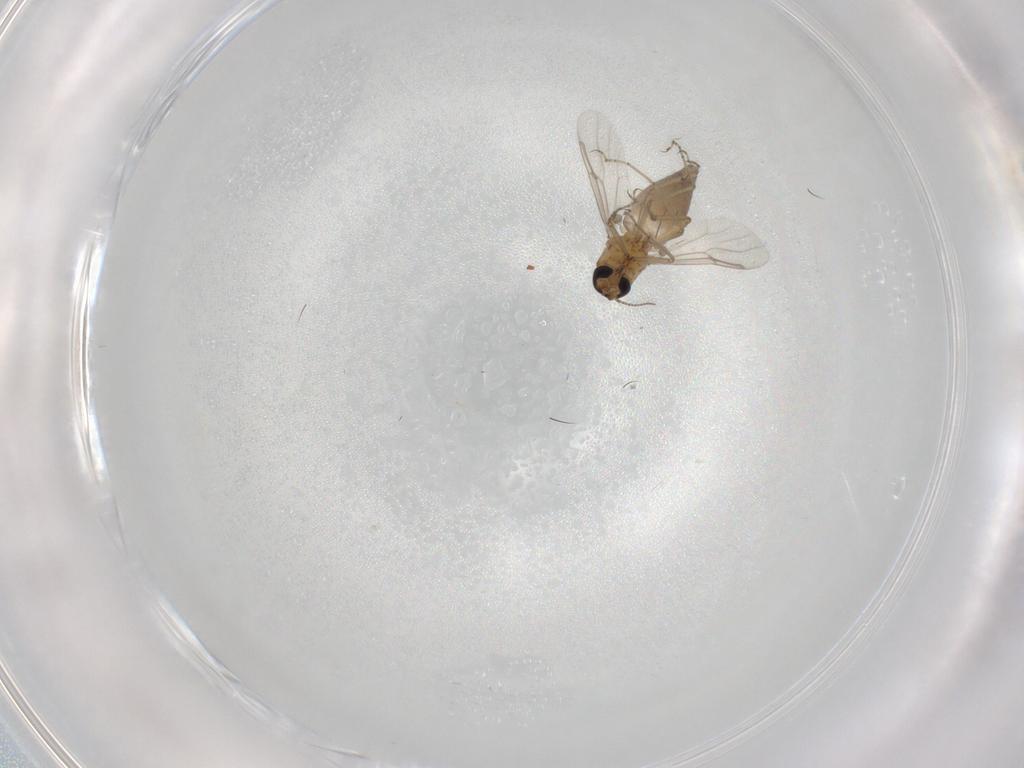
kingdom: Animalia
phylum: Arthropoda
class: Insecta
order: Diptera
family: Ceratopogonidae
